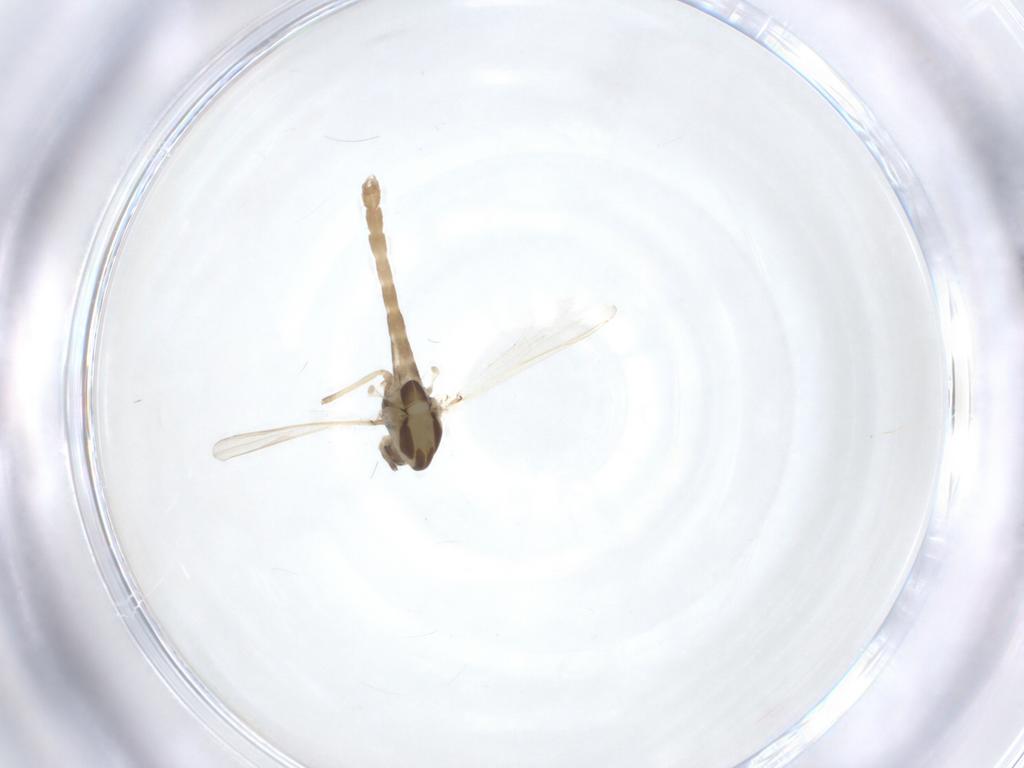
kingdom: Animalia
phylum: Arthropoda
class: Insecta
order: Diptera
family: Chironomidae
